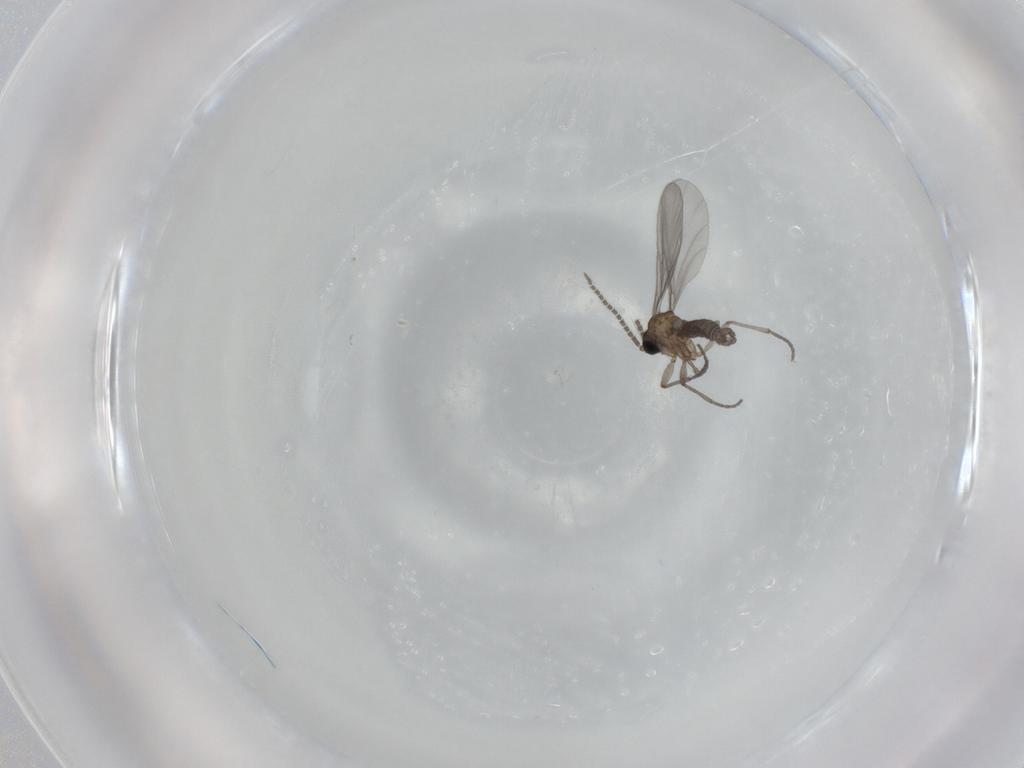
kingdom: Animalia
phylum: Arthropoda
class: Insecta
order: Diptera
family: Sciaridae
